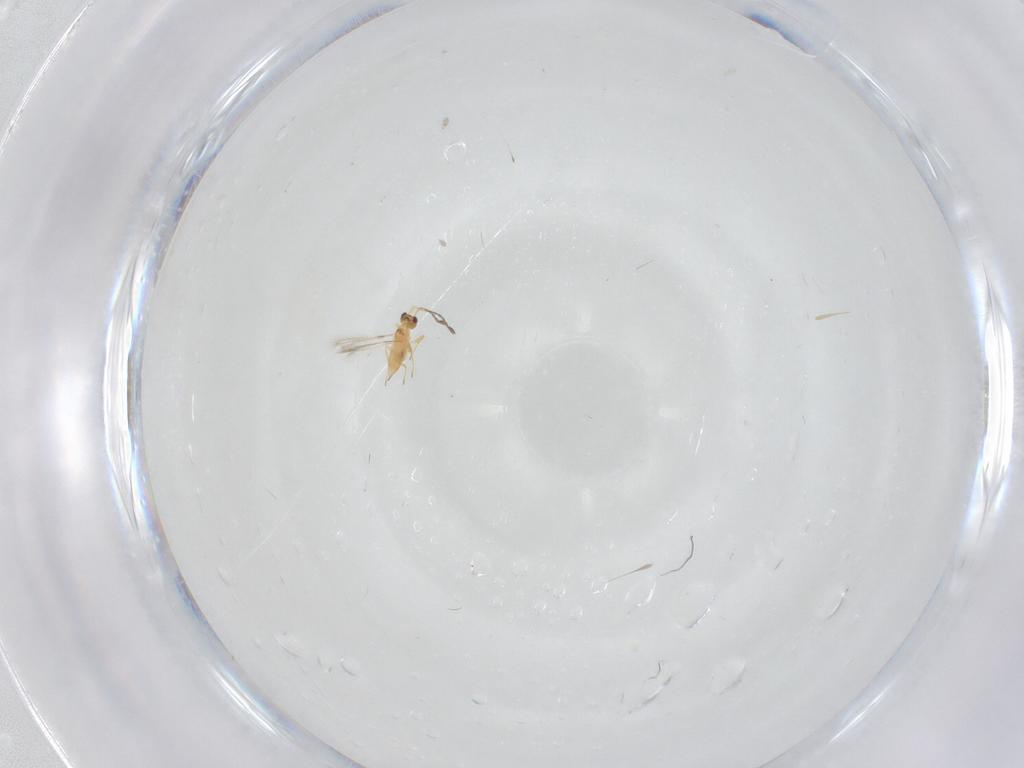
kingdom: Animalia
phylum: Arthropoda
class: Insecta
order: Hymenoptera
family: Mymaridae
